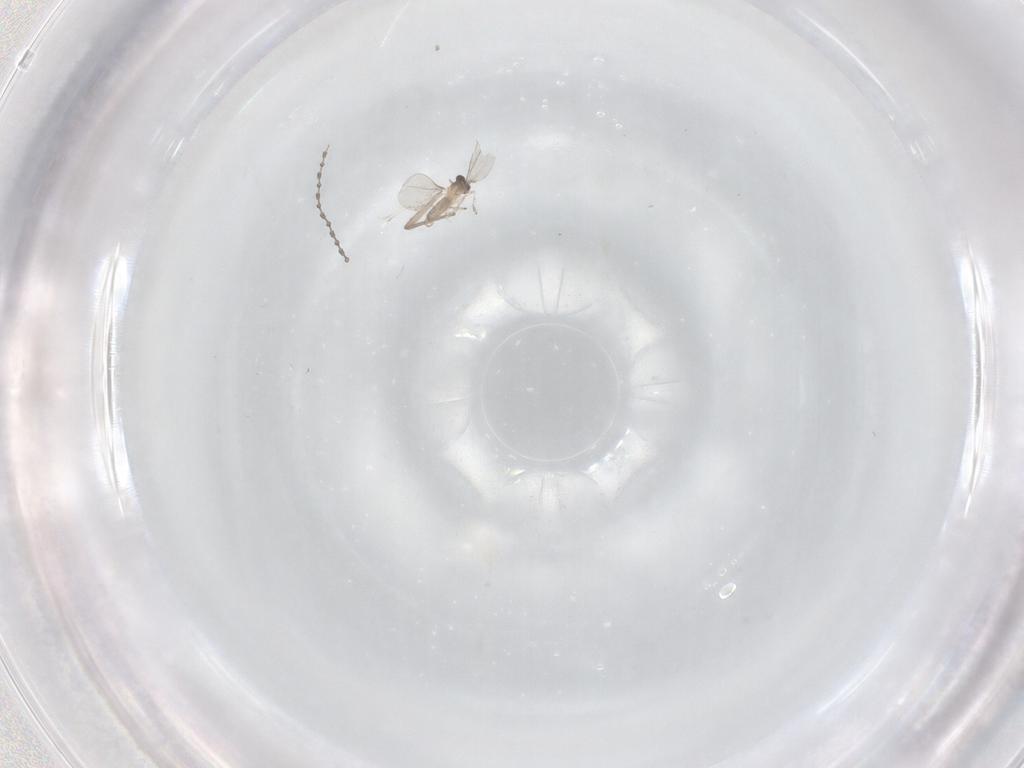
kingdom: Animalia
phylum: Arthropoda
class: Insecta
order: Diptera
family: Cecidomyiidae
